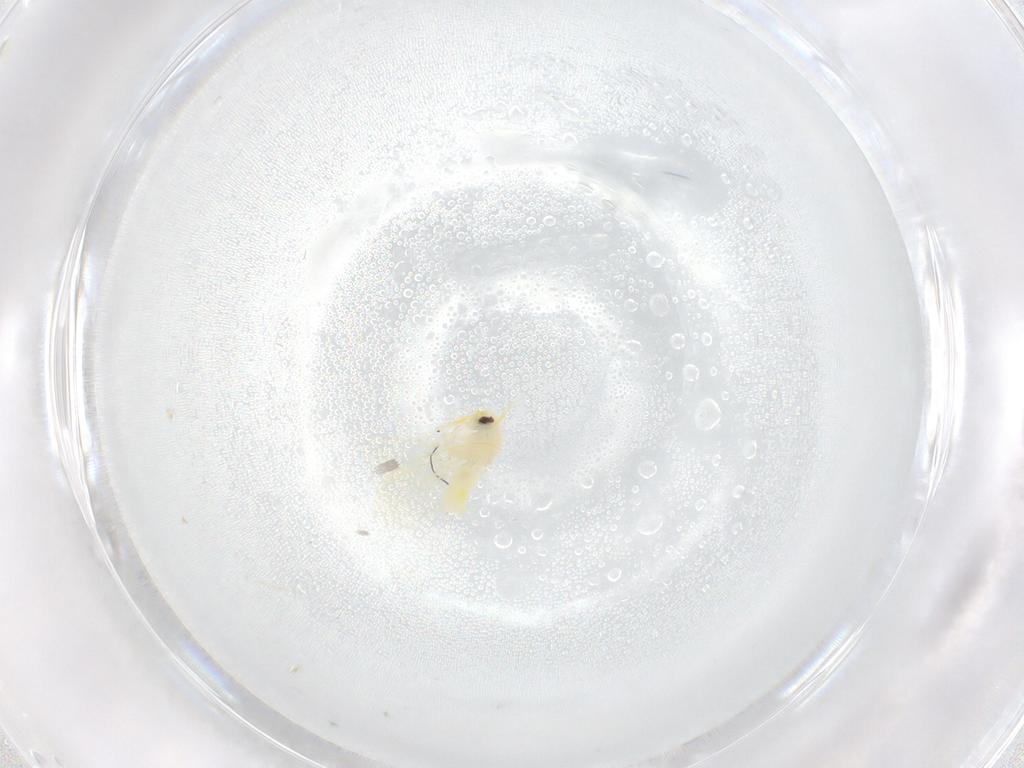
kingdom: Animalia
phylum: Arthropoda
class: Insecta
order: Hemiptera
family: Aleyrodidae
